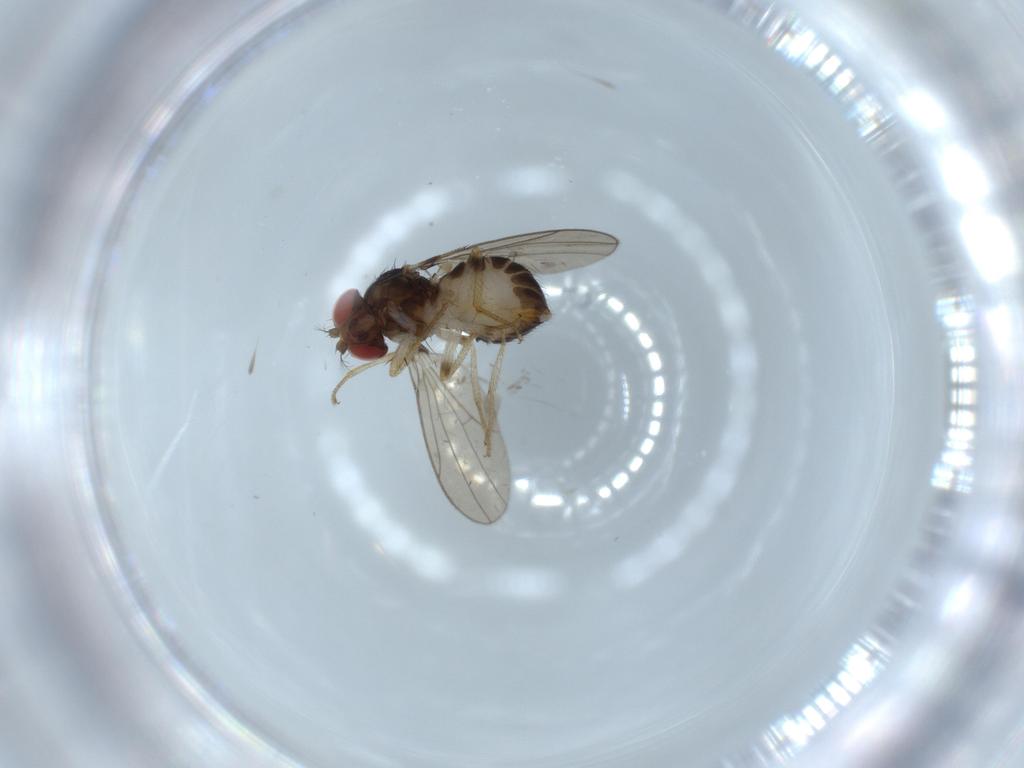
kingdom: Animalia
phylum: Arthropoda
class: Insecta
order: Diptera
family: Drosophilidae
